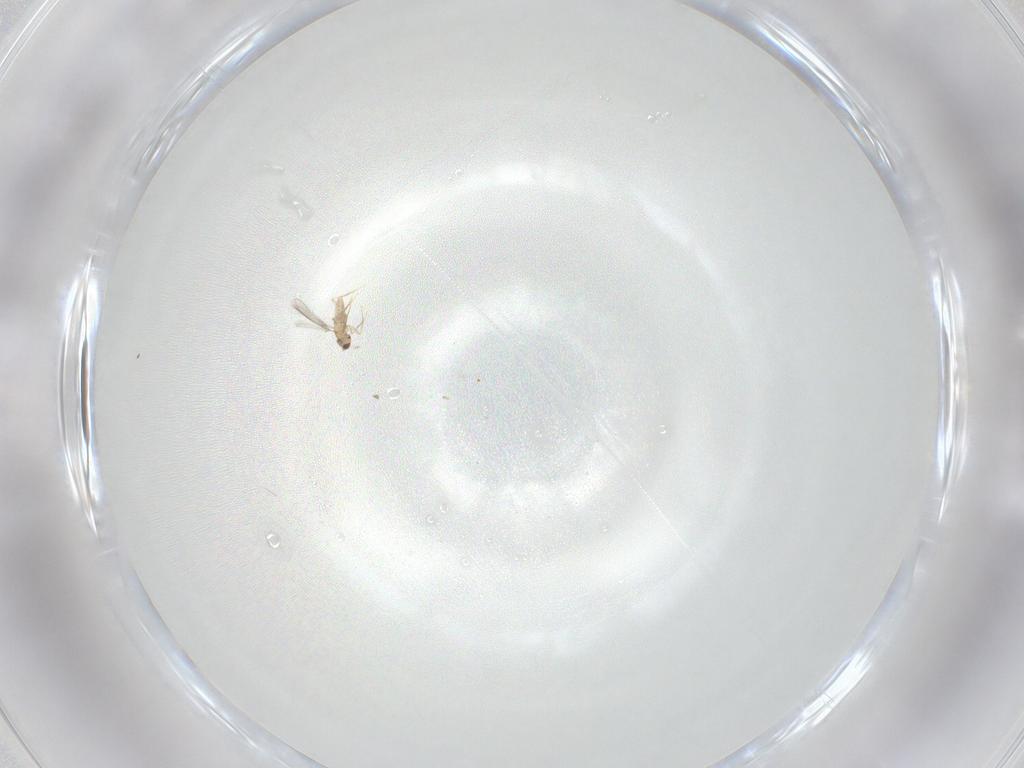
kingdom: Animalia
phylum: Arthropoda
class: Insecta
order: Hymenoptera
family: Mymaridae
